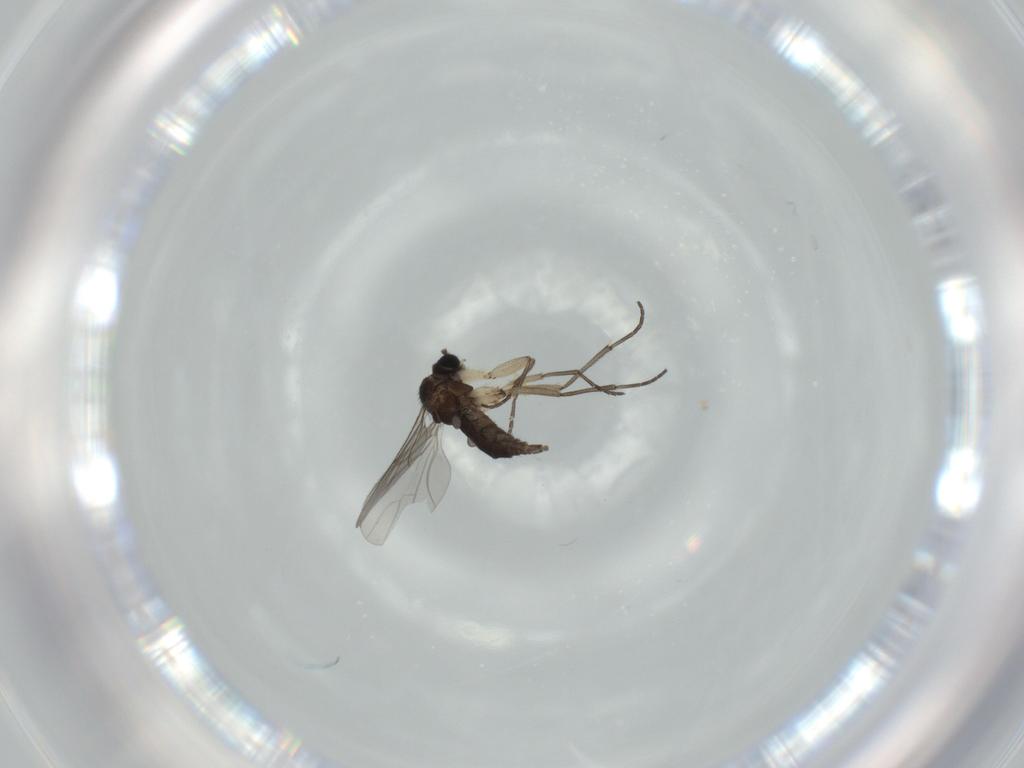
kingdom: Animalia
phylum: Arthropoda
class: Insecta
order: Diptera
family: Sciaridae
